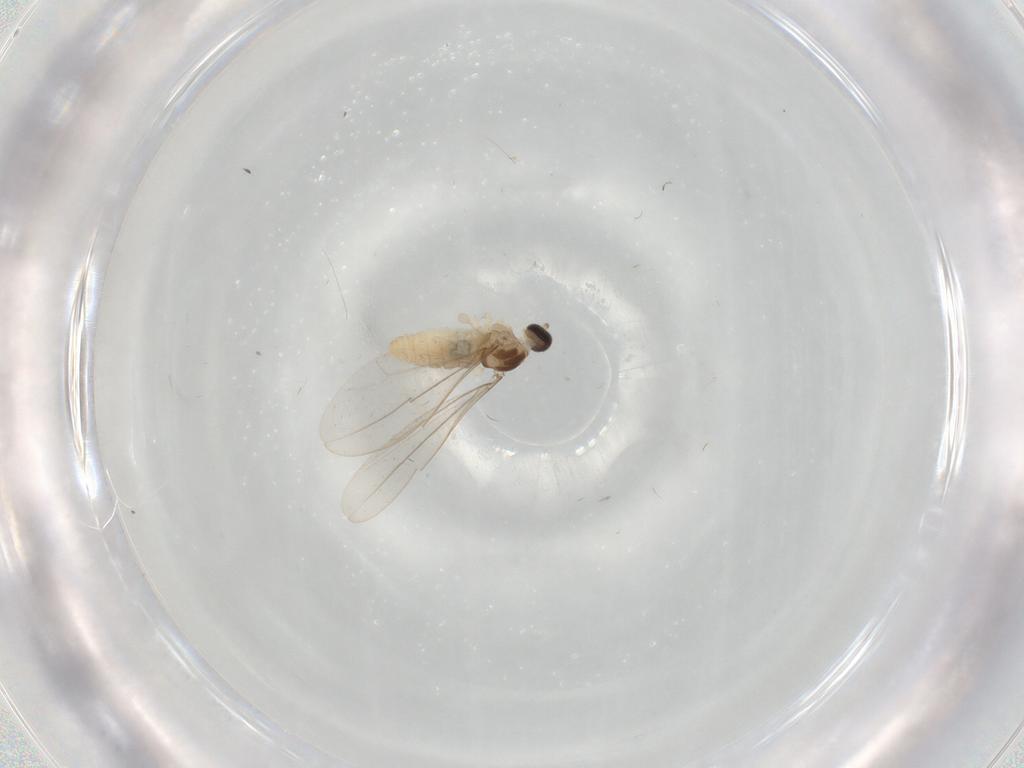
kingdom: Animalia
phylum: Arthropoda
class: Insecta
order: Diptera
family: Cecidomyiidae
